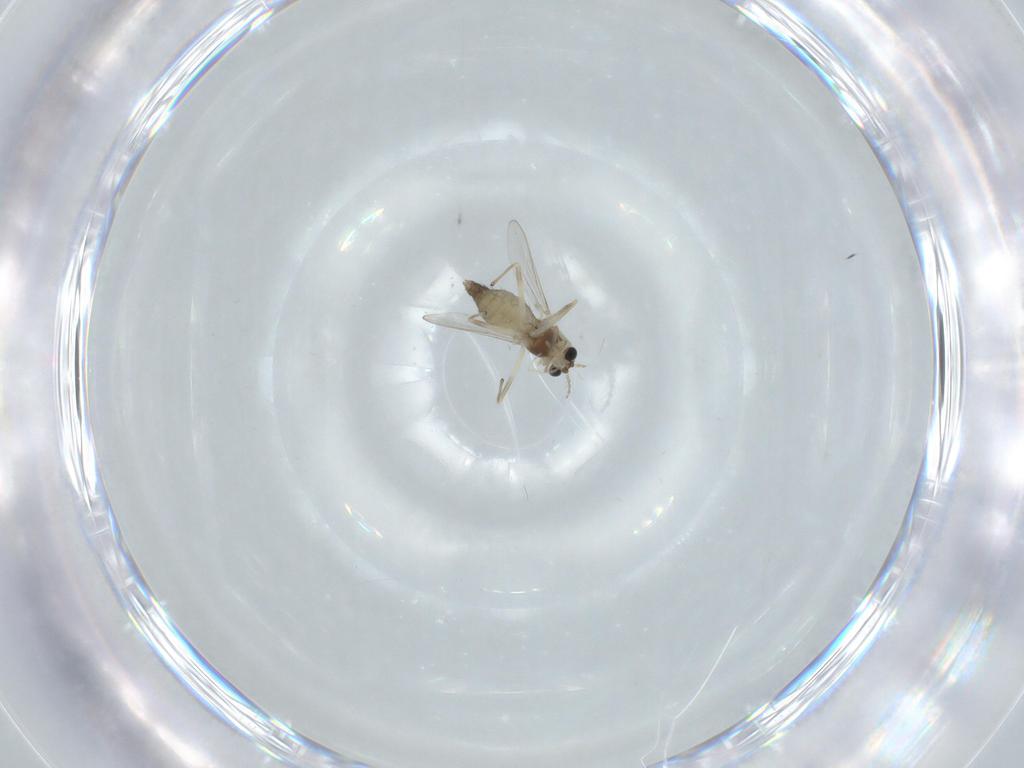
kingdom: Animalia
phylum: Arthropoda
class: Insecta
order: Diptera
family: Chironomidae
